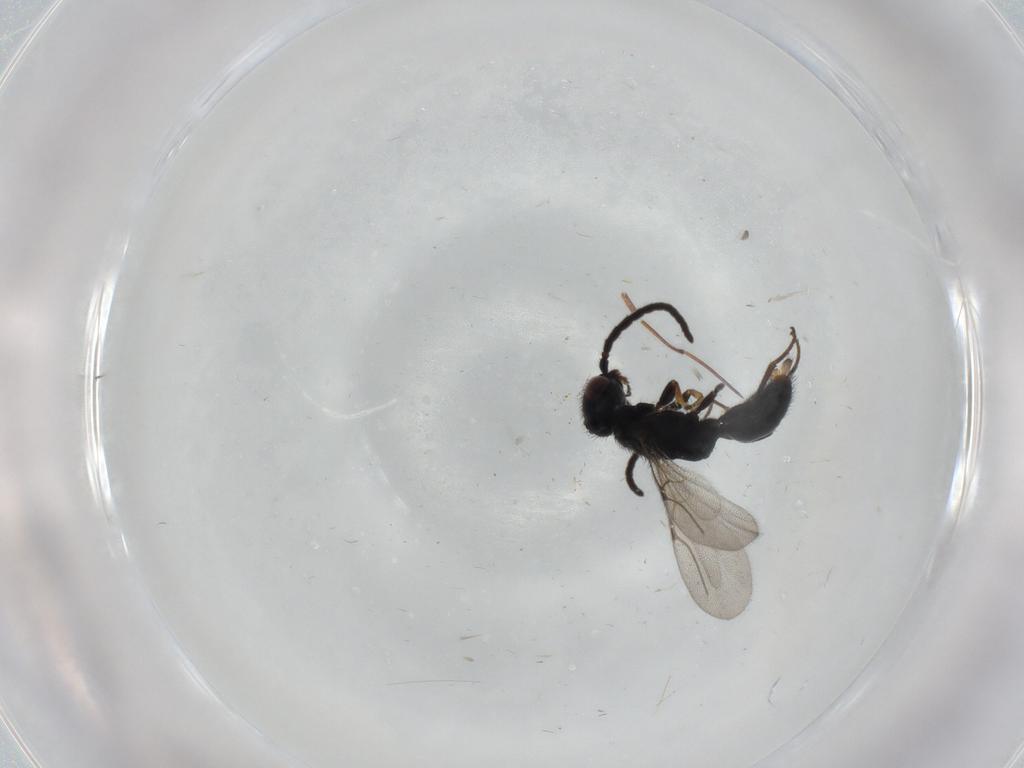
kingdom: Animalia
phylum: Arthropoda
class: Insecta
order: Hymenoptera
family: Bethylidae
